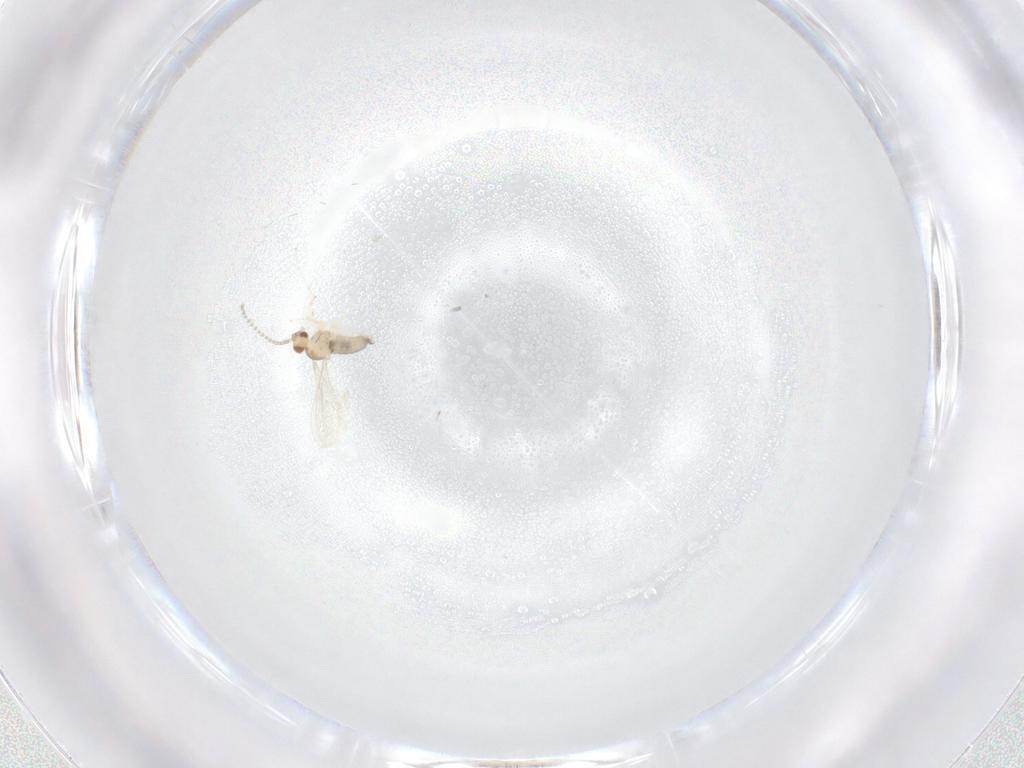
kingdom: Animalia
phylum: Arthropoda
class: Insecta
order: Diptera
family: Cecidomyiidae
